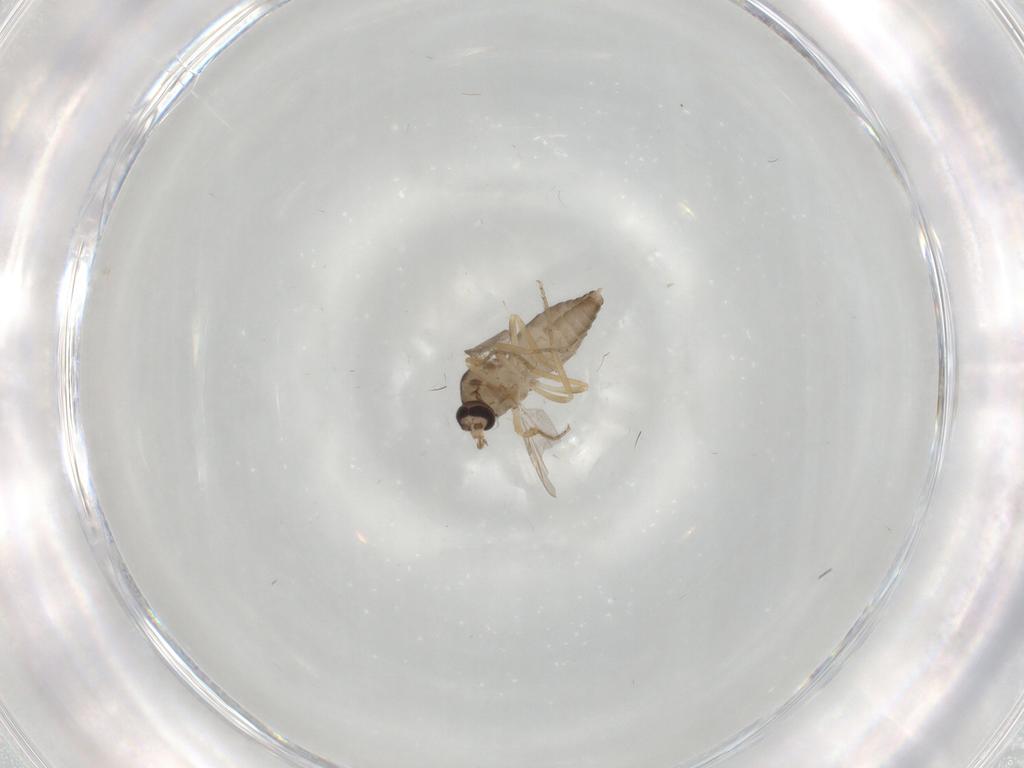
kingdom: Animalia
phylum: Arthropoda
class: Insecta
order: Diptera
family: Ceratopogonidae
